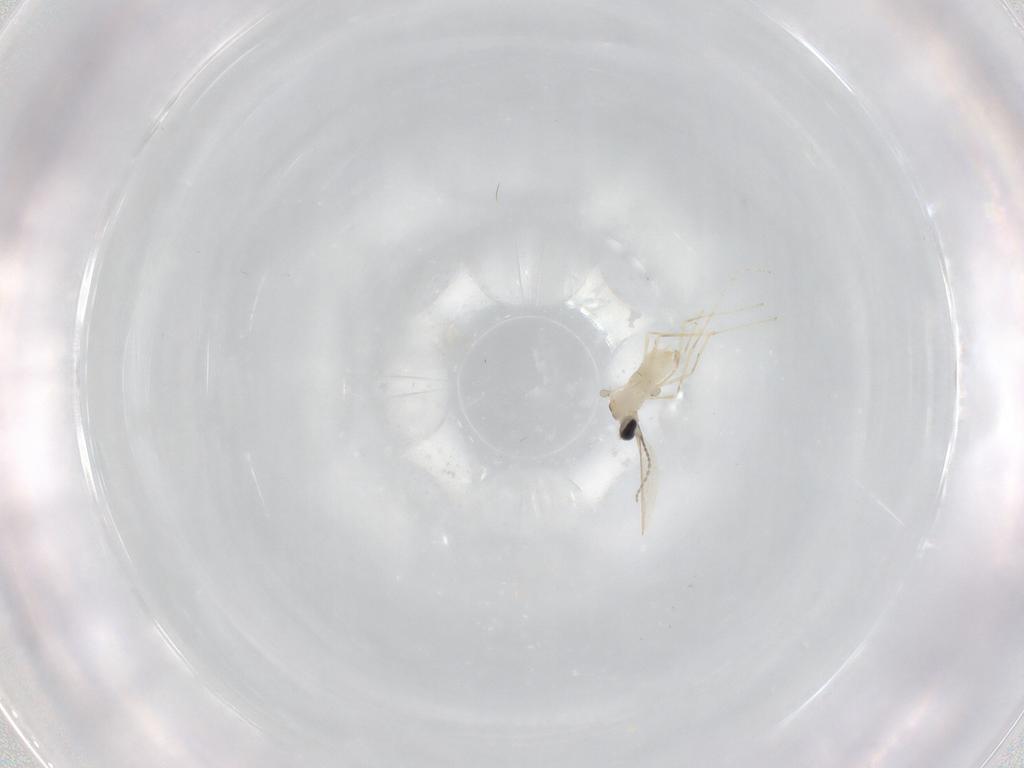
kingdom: Animalia
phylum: Arthropoda
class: Insecta
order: Diptera
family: Cecidomyiidae
